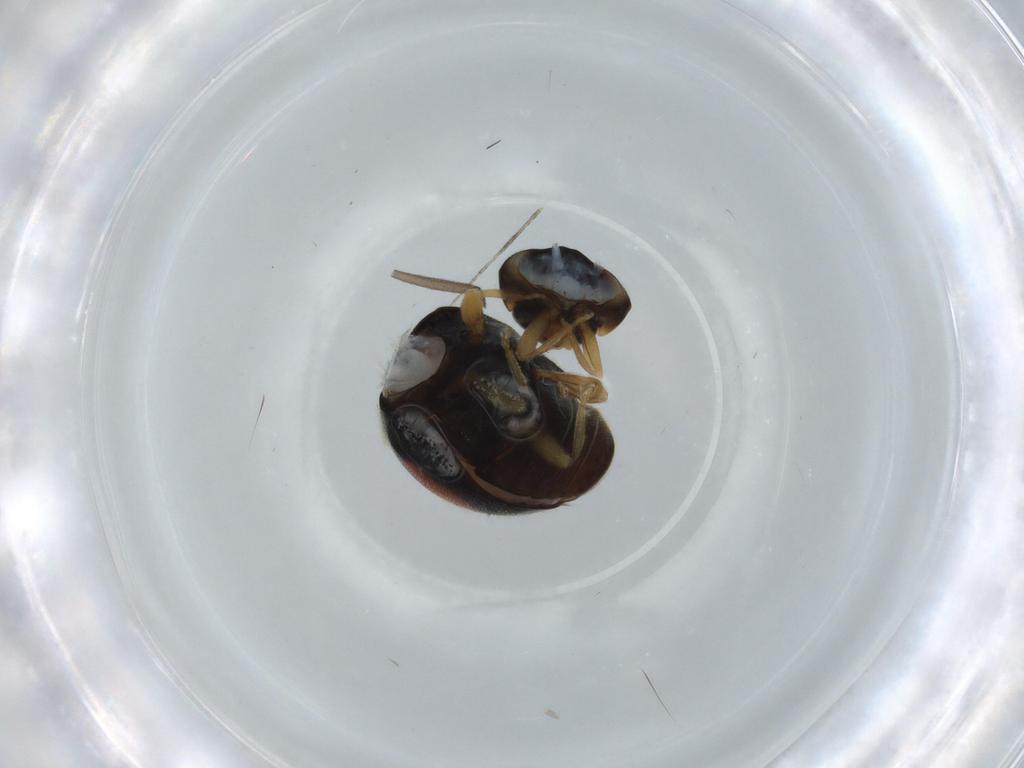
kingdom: Animalia
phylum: Arthropoda
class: Insecta
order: Coleoptera
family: Coccinellidae
